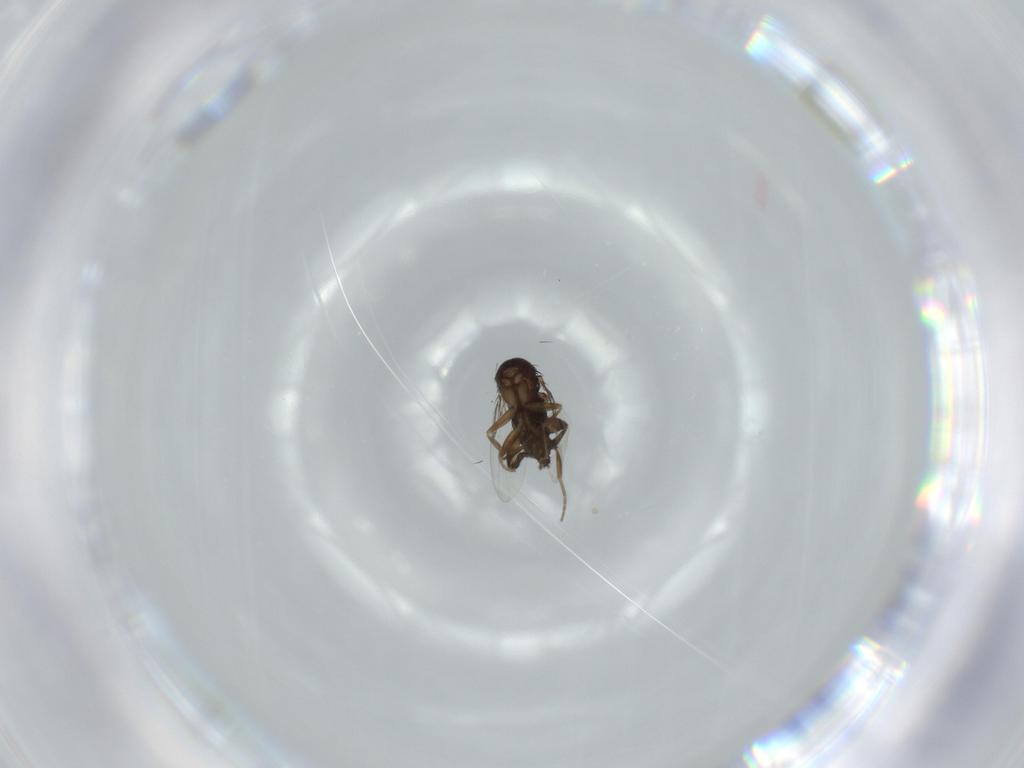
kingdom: Animalia
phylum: Arthropoda
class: Insecta
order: Diptera
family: Phoridae
